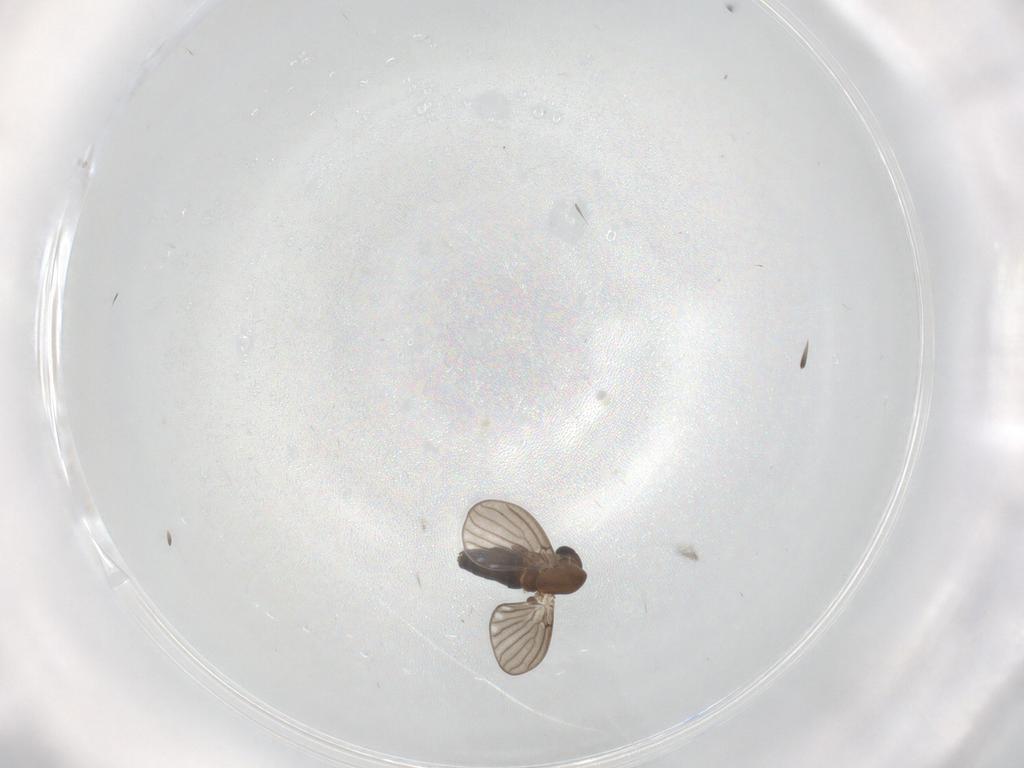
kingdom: Animalia
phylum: Arthropoda
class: Insecta
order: Diptera
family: Psychodidae
